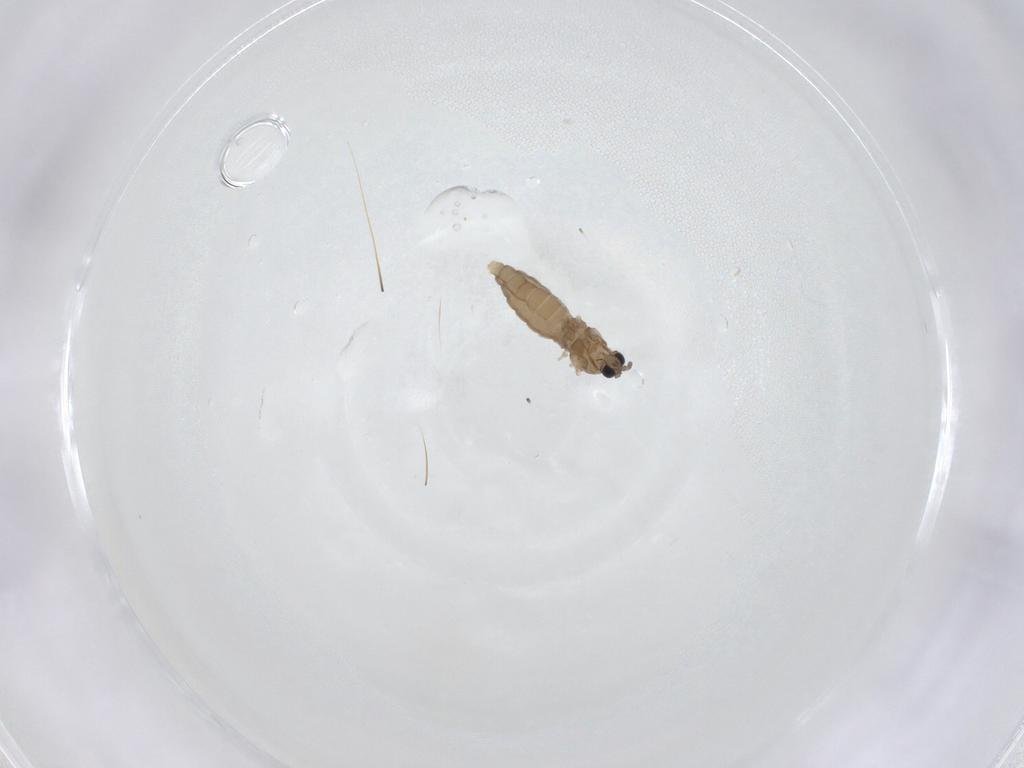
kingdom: Animalia
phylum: Arthropoda
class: Insecta
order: Diptera
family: Cecidomyiidae
